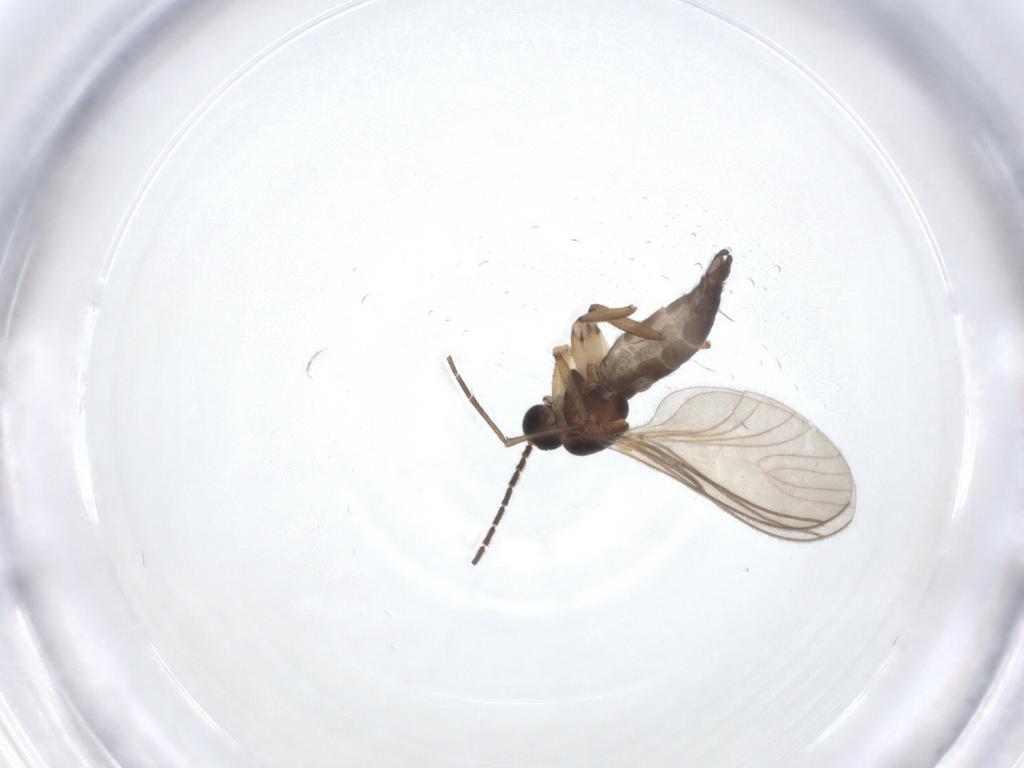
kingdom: Animalia
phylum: Arthropoda
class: Insecta
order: Diptera
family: Sciaridae
